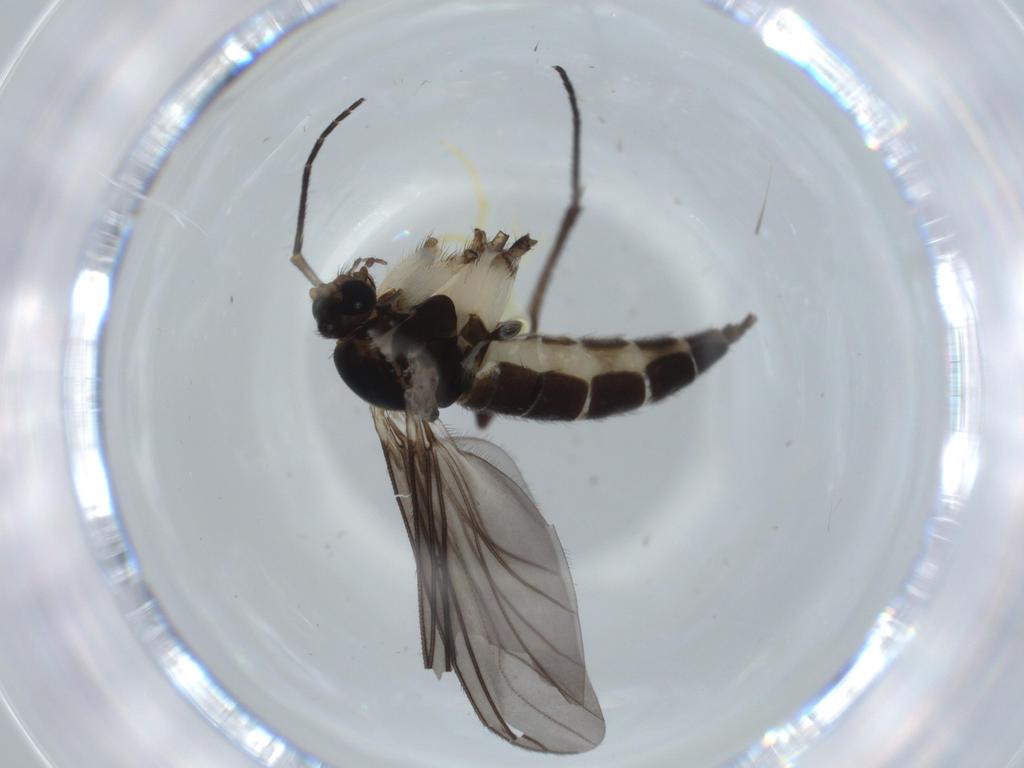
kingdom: Animalia
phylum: Arthropoda
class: Insecta
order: Diptera
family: Sciaridae
